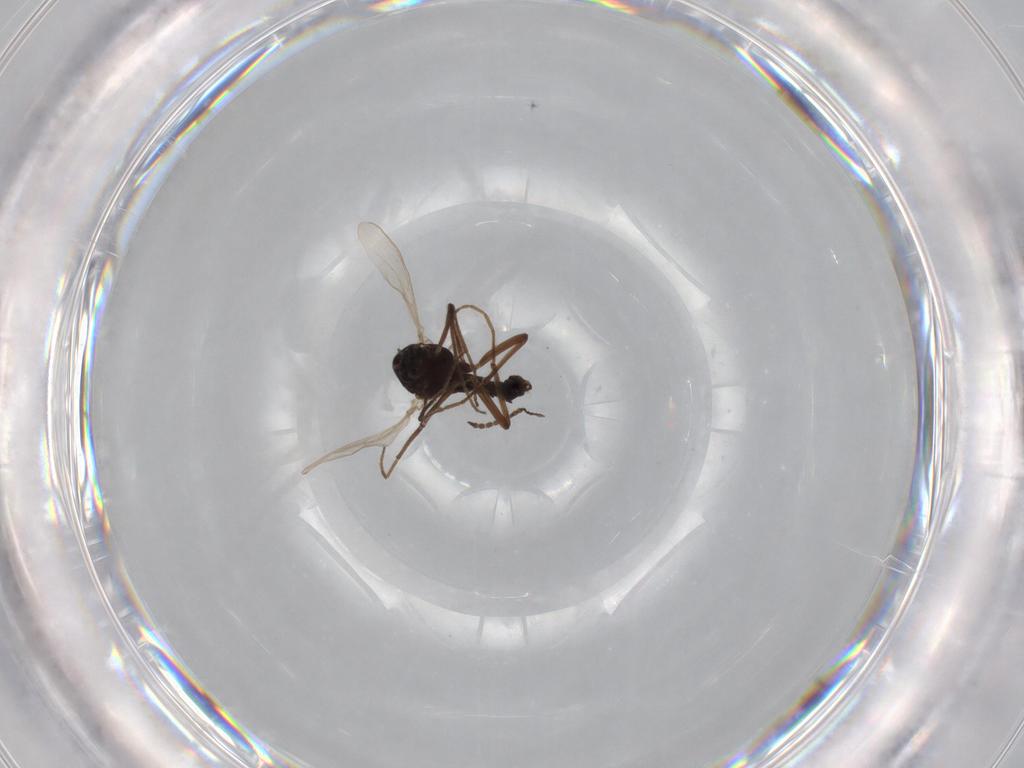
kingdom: Animalia
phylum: Arthropoda
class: Insecta
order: Diptera
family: Chironomidae
